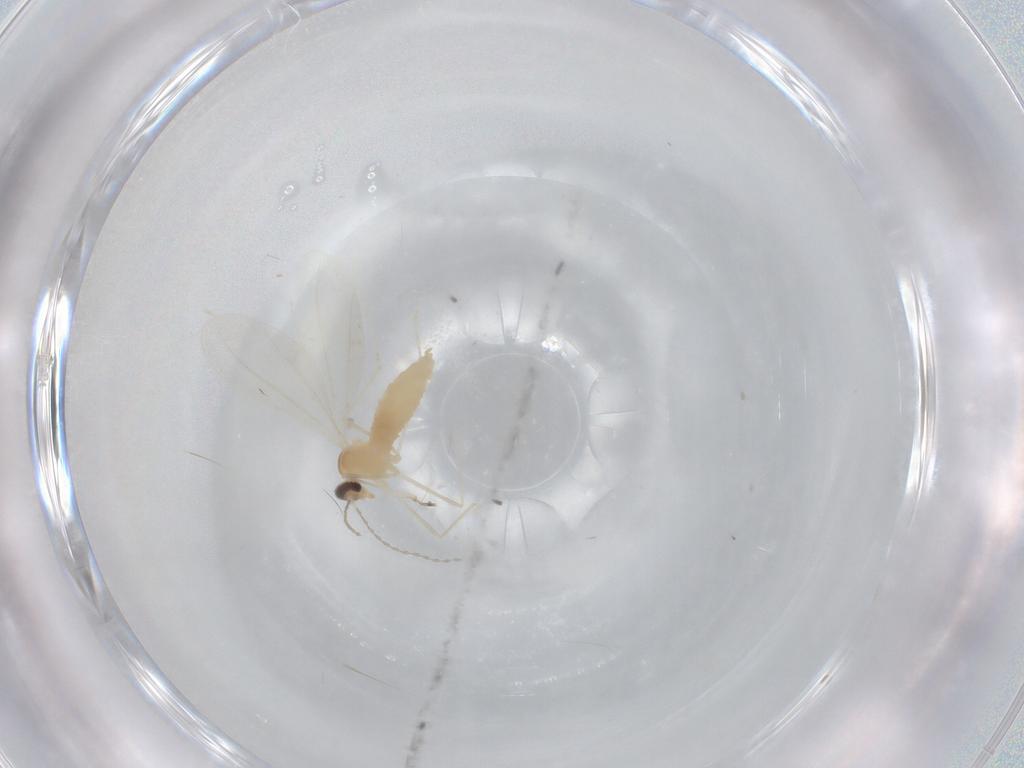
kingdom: Animalia
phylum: Arthropoda
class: Insecta
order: Diptera
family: Cecidomyiidae
